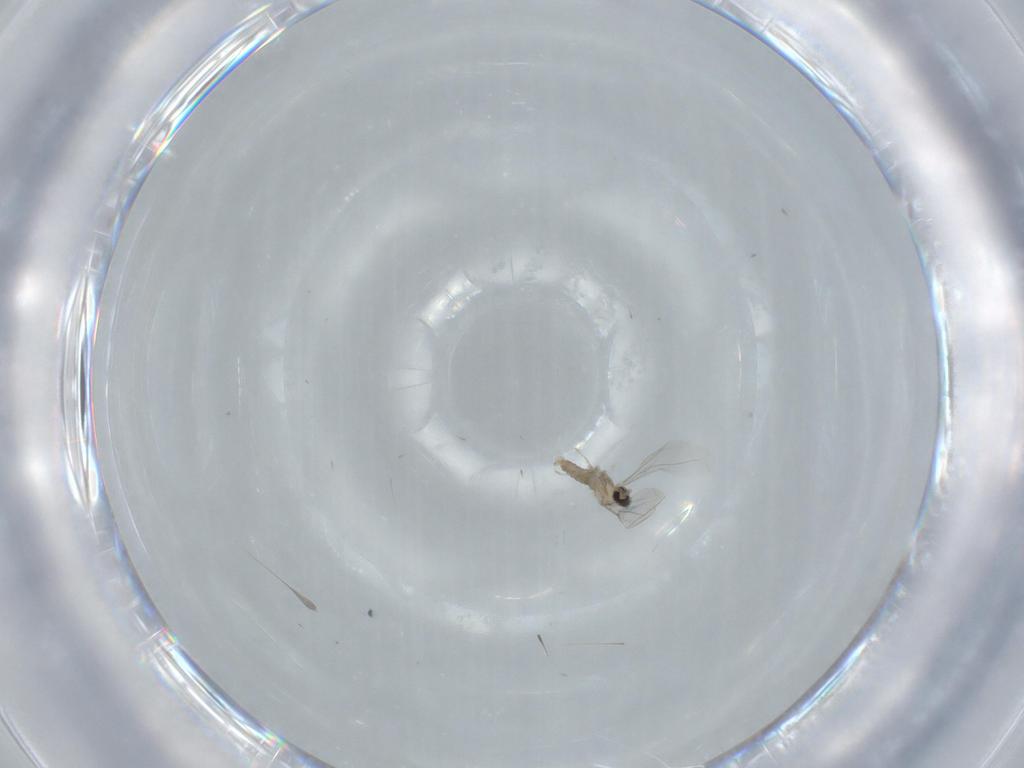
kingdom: Animalia
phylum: Arthropoda
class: Insecta
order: Diptera
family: Cecidomyiidae
